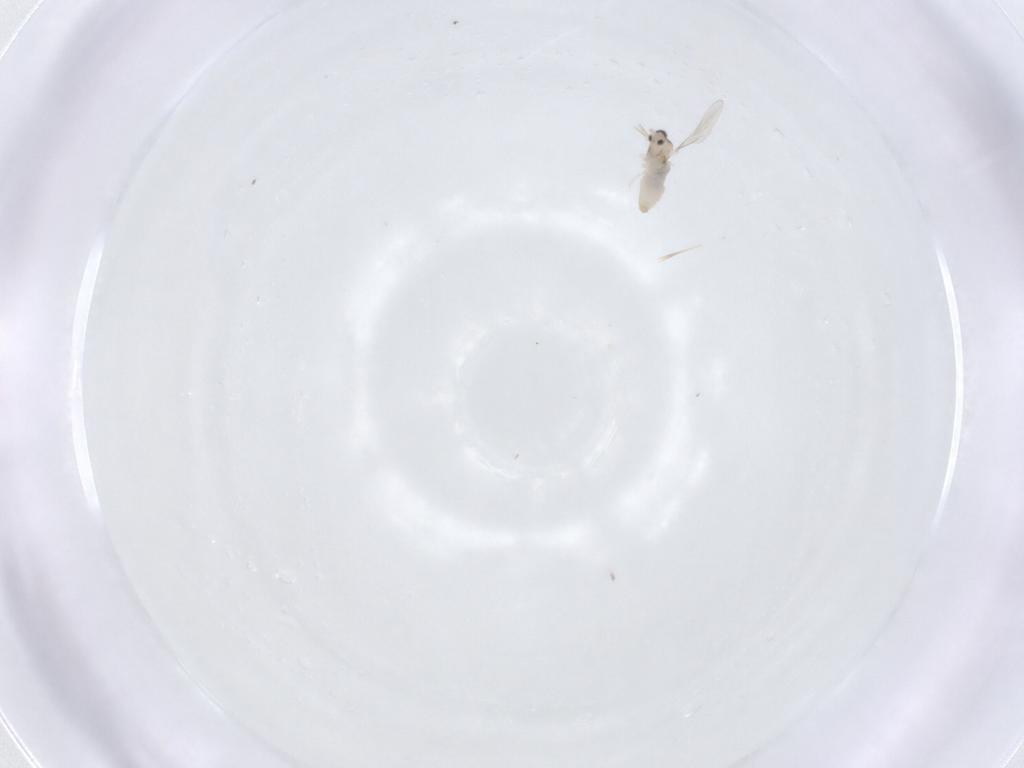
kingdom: Animalia
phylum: Arthropoda
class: Insecta
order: Diptera
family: Cecidomyiidae
